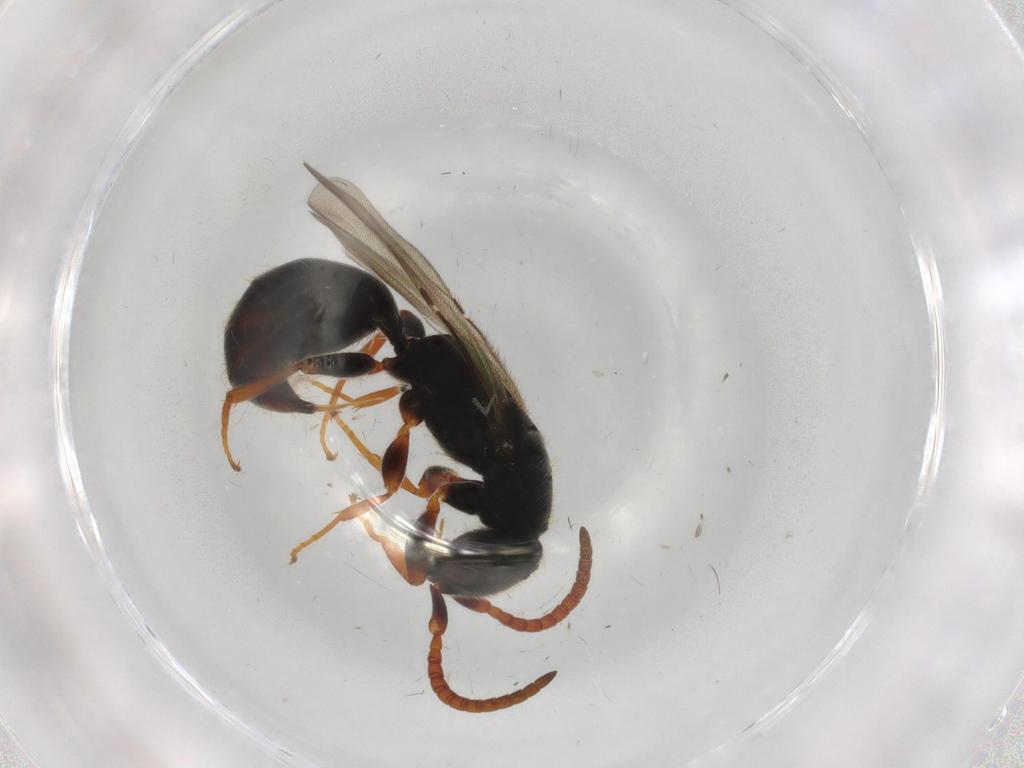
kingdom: Animalia
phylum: Arthropoda
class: Insecta
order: Hymenoptera
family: Bethylidae
